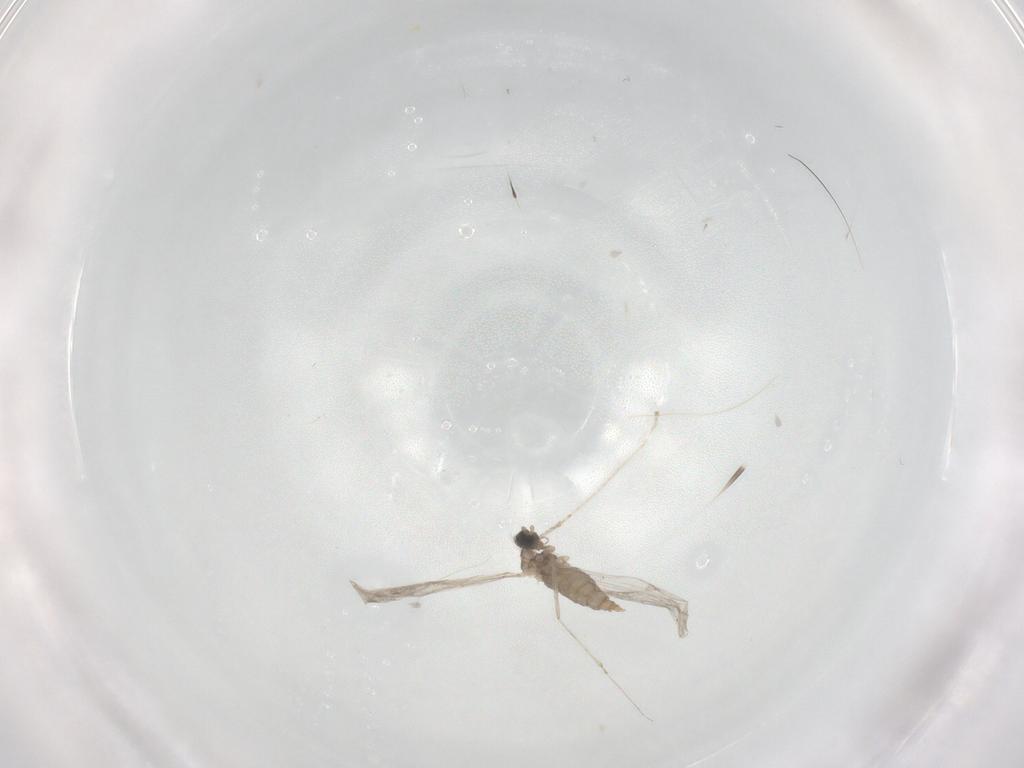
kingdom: Animalia
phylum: Arthropoda
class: Insecta
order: Diptera
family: Cecidomyiidae
